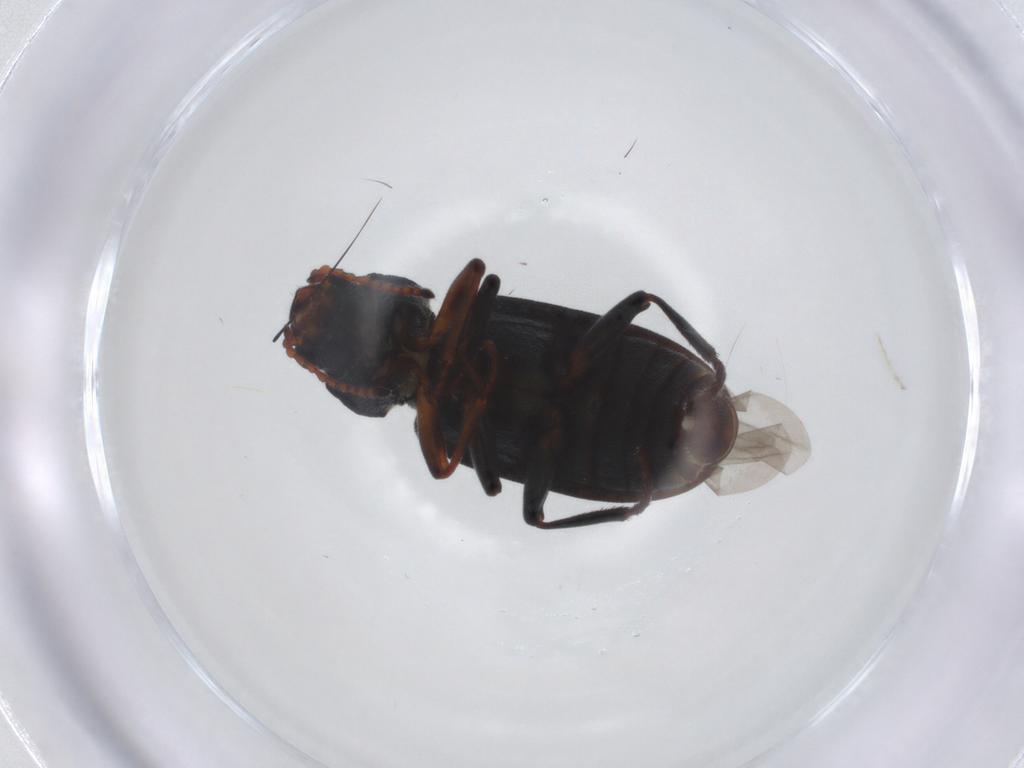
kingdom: Animalia
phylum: Arthropoda
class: Insecta
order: Coleoptera
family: Melyridae
